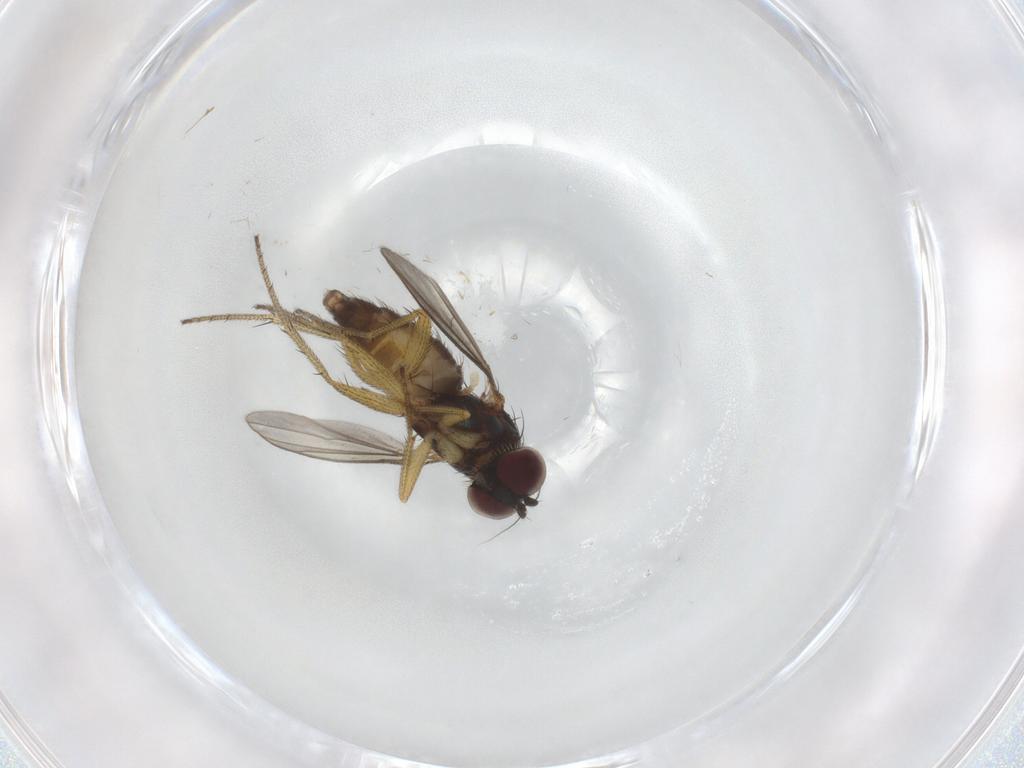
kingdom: Animalia
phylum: Arthropoda
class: Insecta
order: Diptera
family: Dolichopodidae
